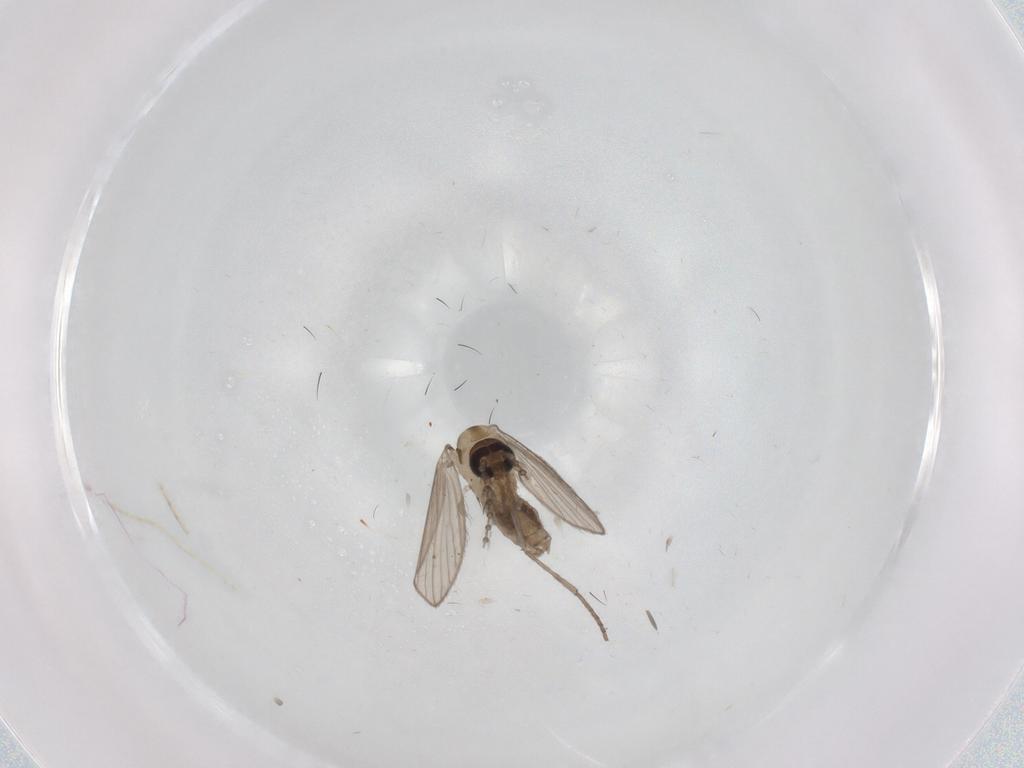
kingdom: Animalia
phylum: Arthropoda
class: Insecta
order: Diptera
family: Psychodidae
